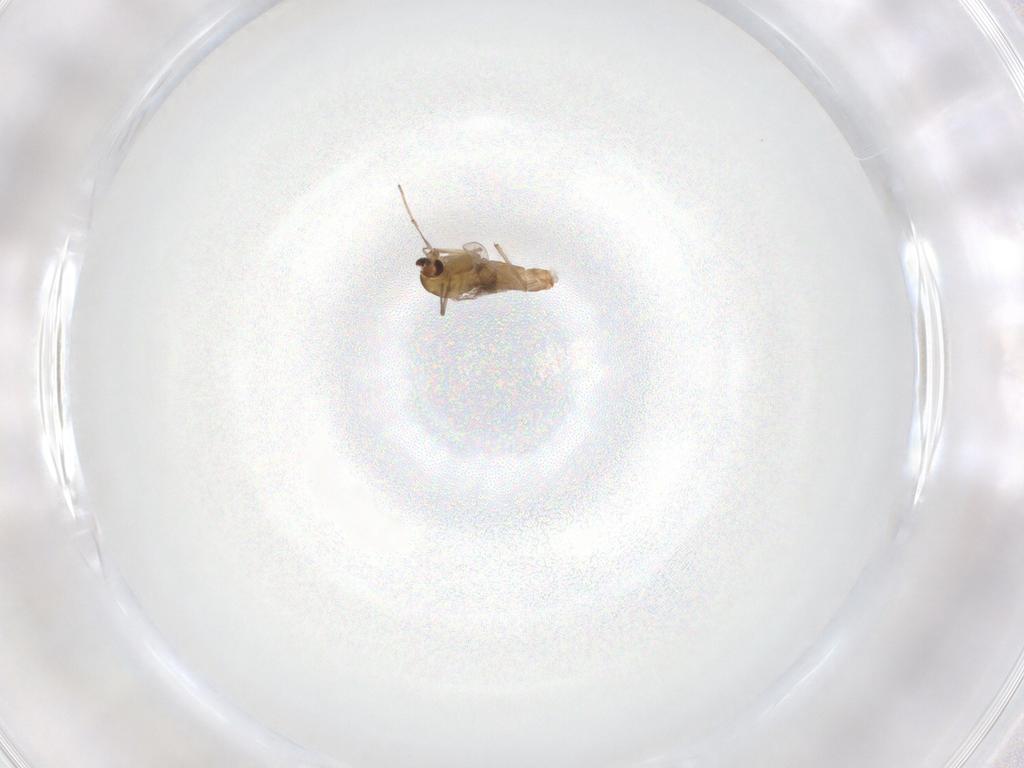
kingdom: Animalia
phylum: Arthropoda
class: Insecta
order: Diptera
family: Chironomidae
